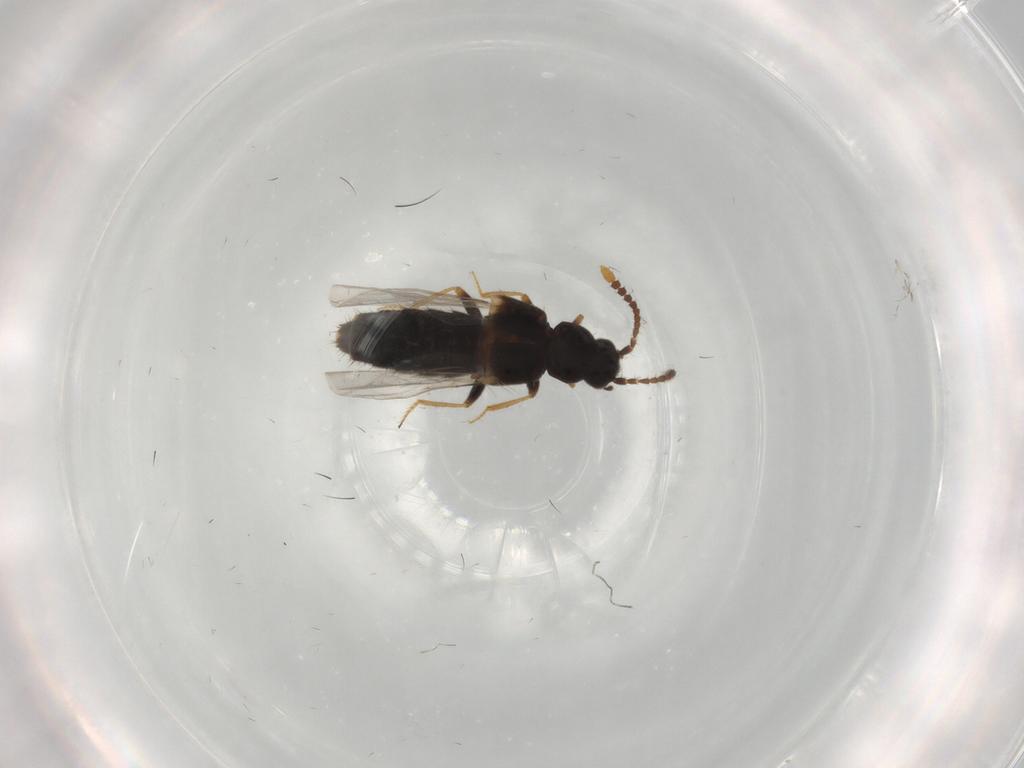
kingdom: Animalia
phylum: Arthropoda
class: Insecta
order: Coleoptera
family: Staphylinidae
